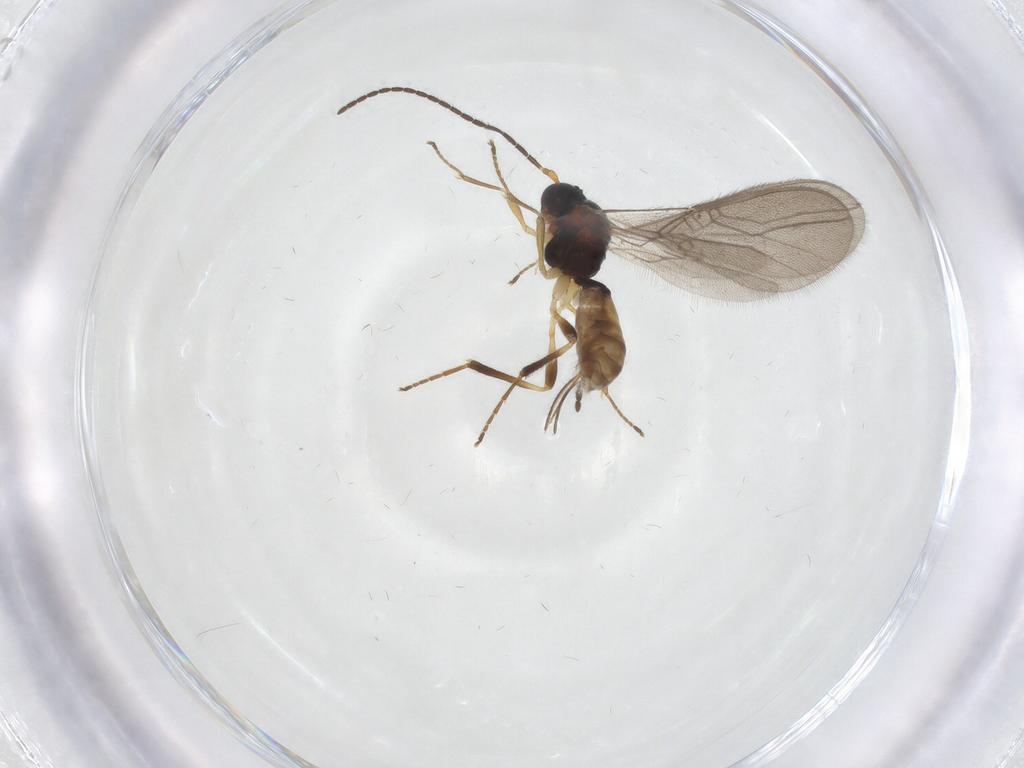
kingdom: Animalia
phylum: Arthropoda
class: Insecta
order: Hymenoptera
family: Braconidae
